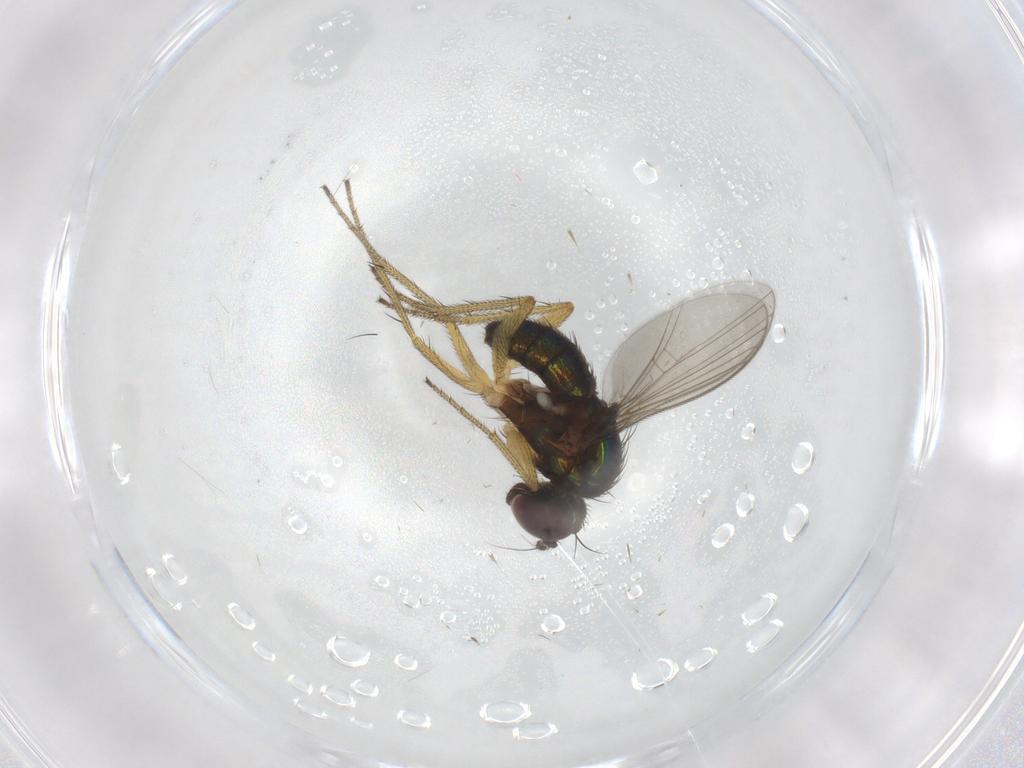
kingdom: Animalia
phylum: Arthropoda
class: Insecta
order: Diptera
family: Dolichopodidae
